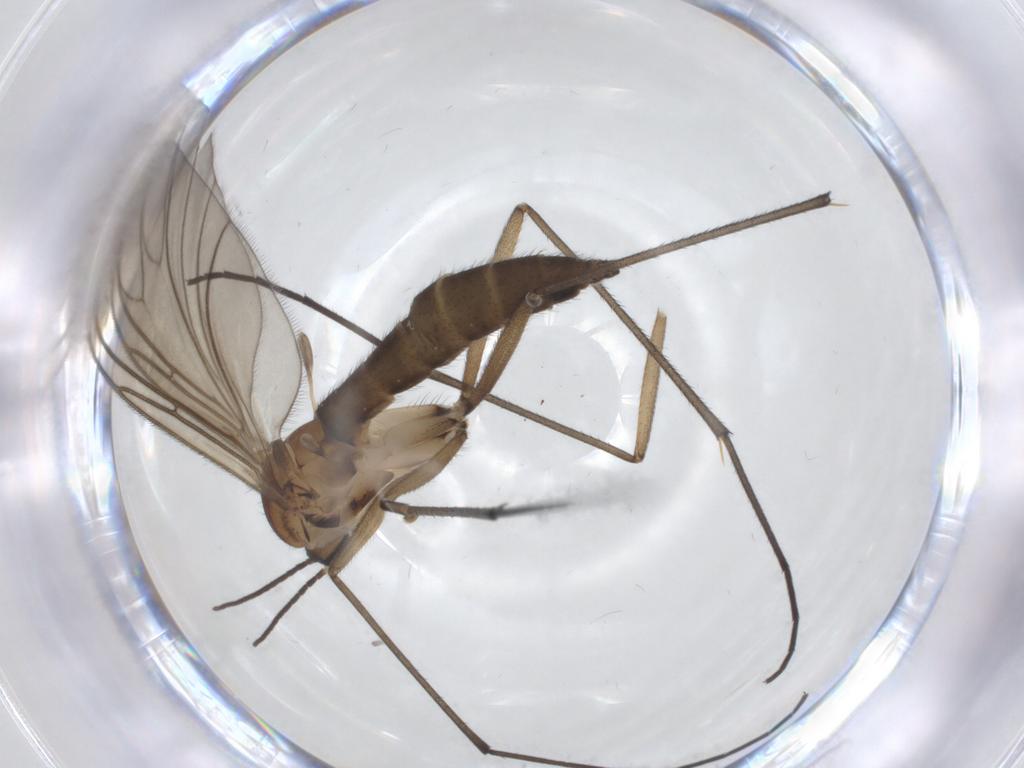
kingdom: Animalia
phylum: Arthropoda
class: Insecta
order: Diptera
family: Sciaridae
